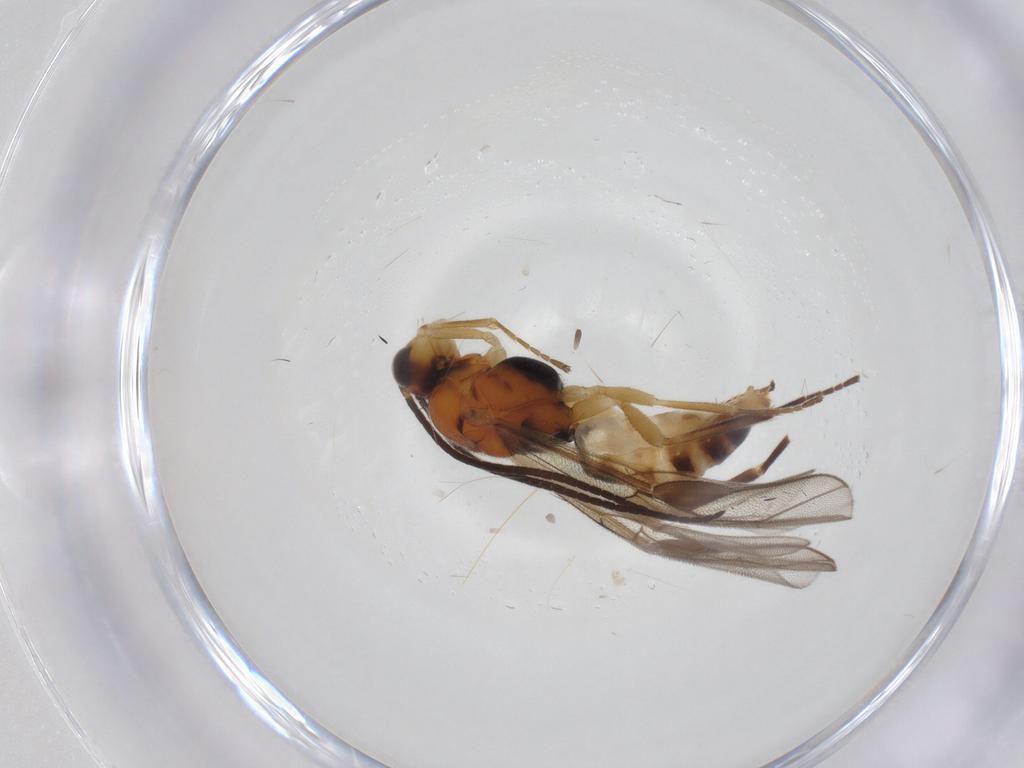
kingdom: Animalia
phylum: Arthropoda
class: Insecta
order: Hymenoptera
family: Braconidae
